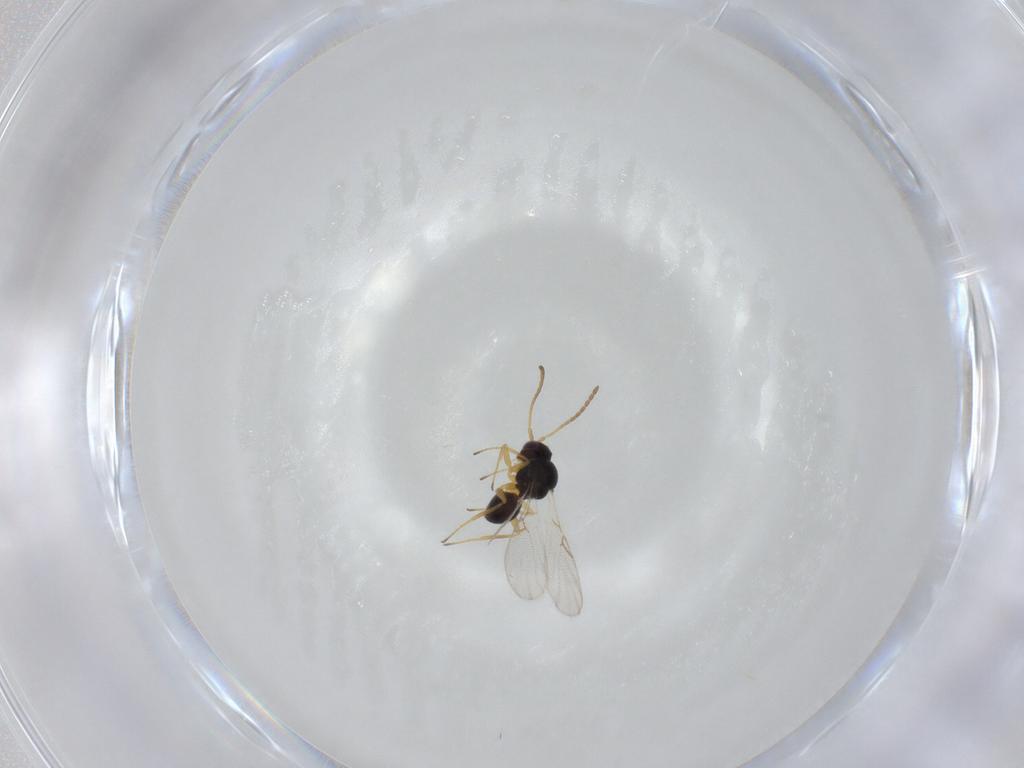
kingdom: Animalia
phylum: Arthropoda
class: Insecta
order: Hymenoptera
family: Figitidae
